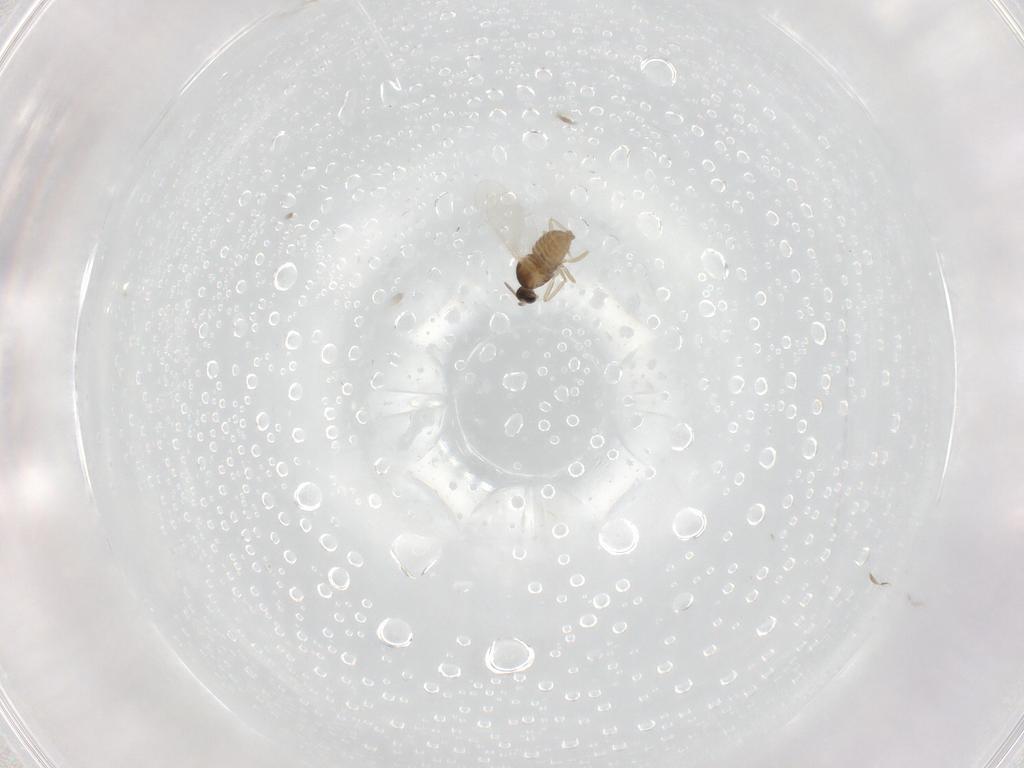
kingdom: Animalia
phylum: Arthropoda
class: Insecta
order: Diptera
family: Cecidomyiidae
